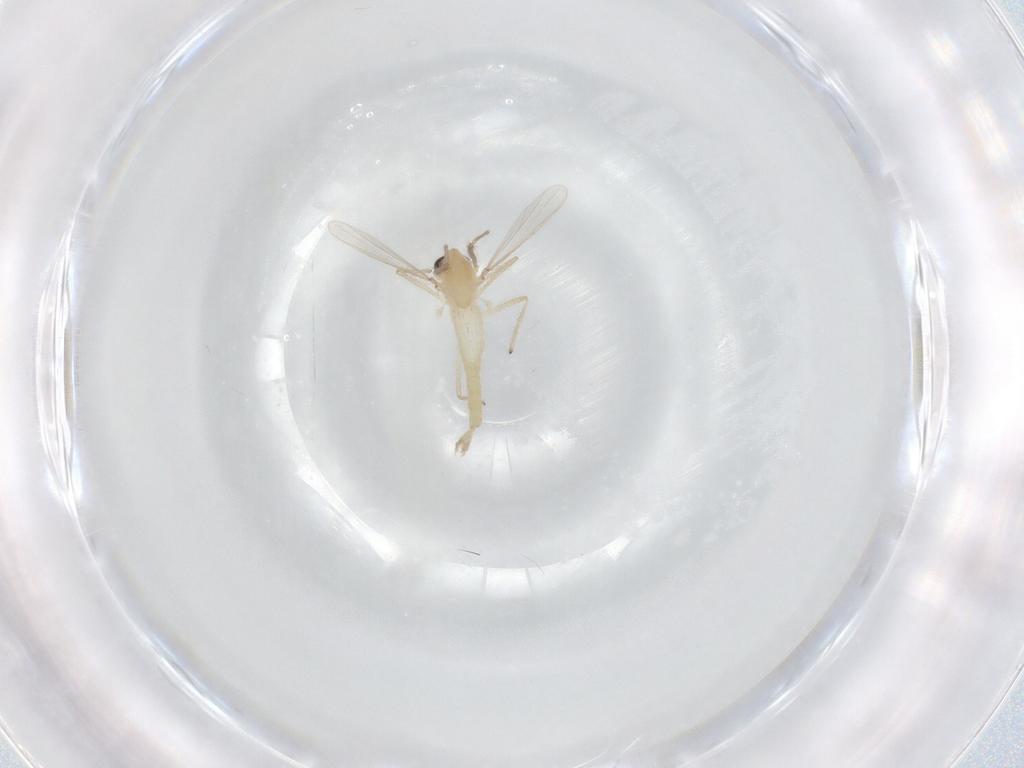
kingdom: Animalia
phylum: Arthropoda
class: Insecta
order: Diptera
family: Chironomidae
